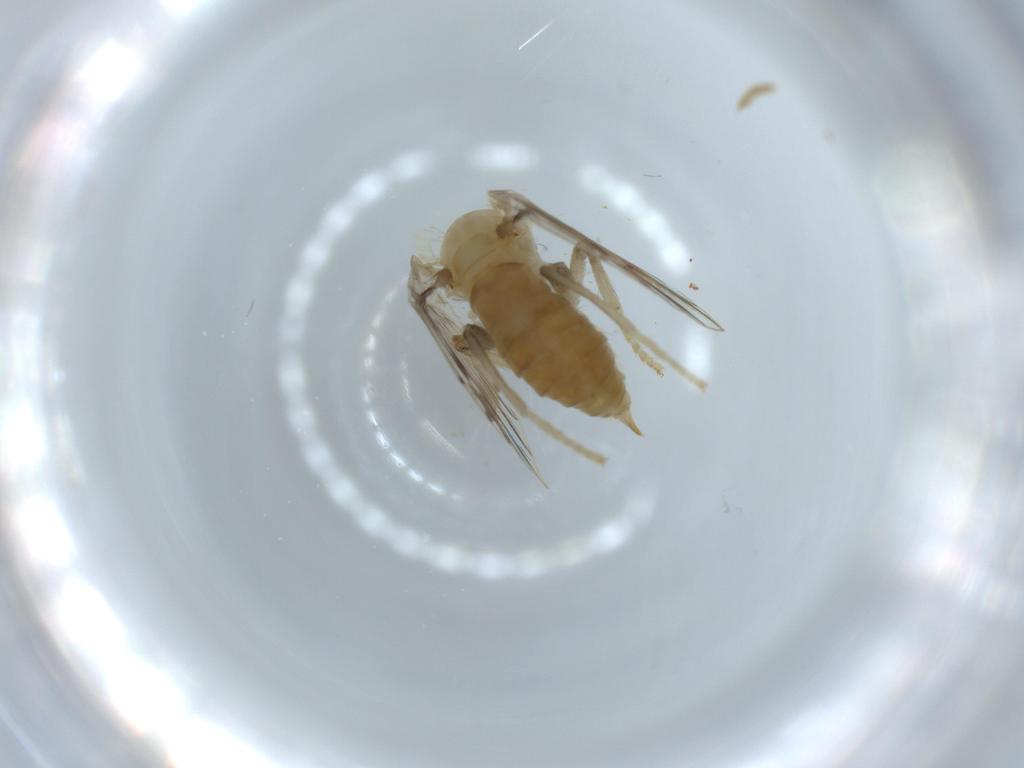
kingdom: Animalia
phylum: Arthropoda
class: Insecta
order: Diptera
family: Psychodidae
